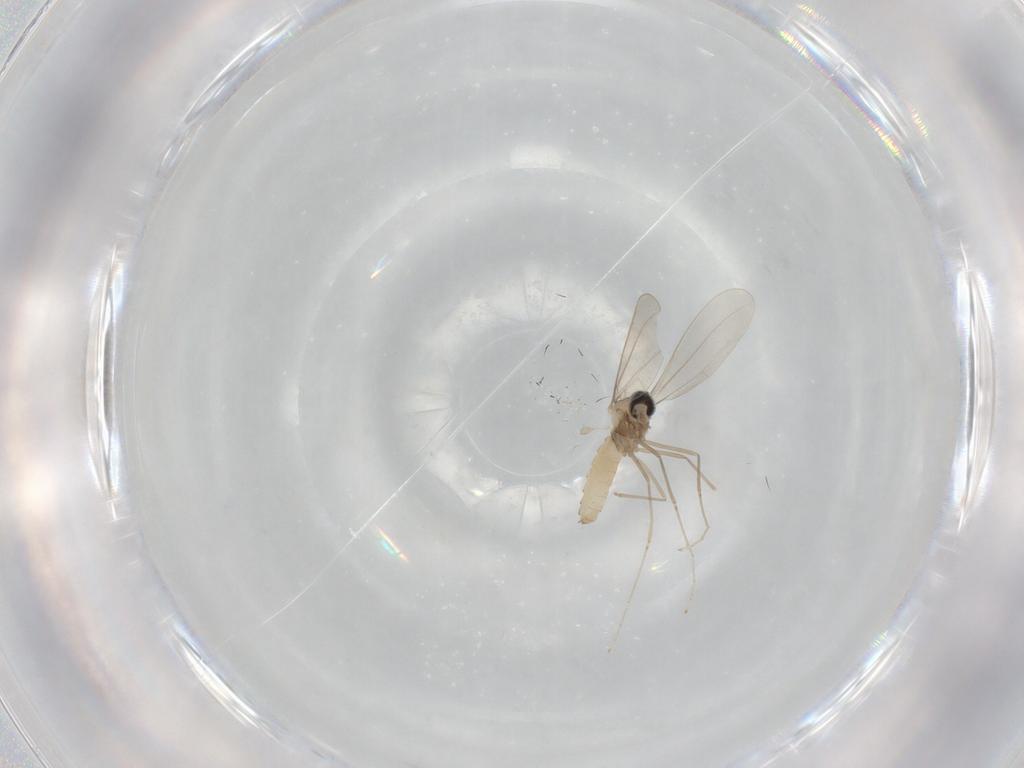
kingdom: Animalia
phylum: Arthropoda
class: Insecta
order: Diptera
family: Cecidomyiidae
